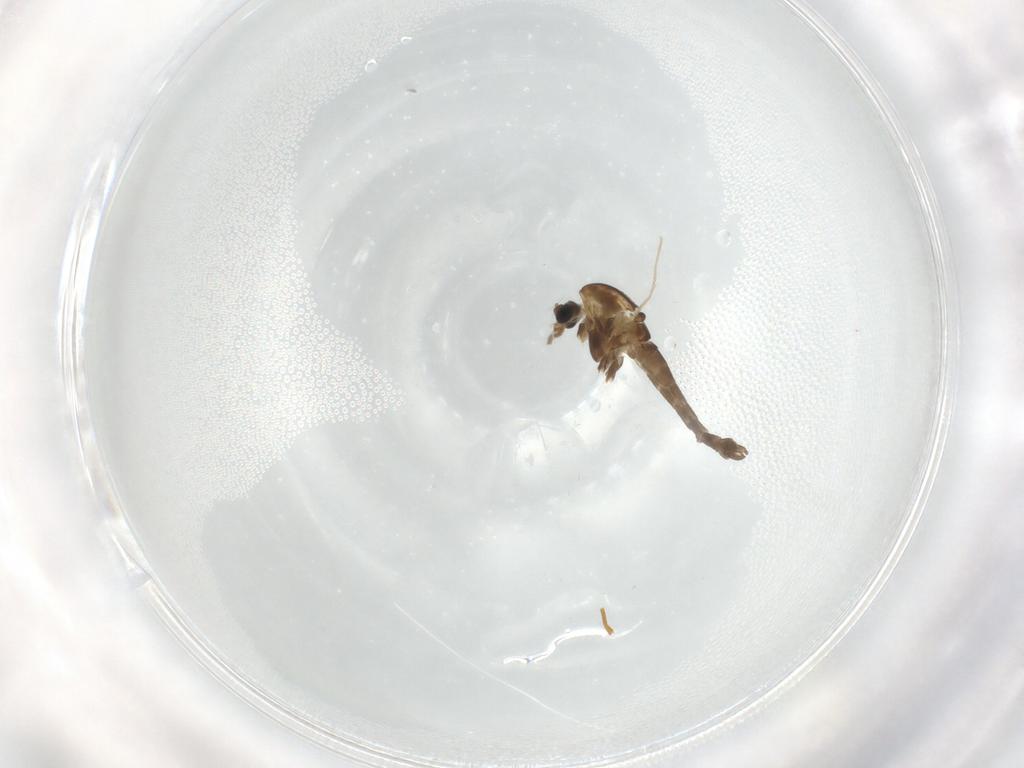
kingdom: Animalia
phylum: Arthropoda
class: Insecta
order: Diptera
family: Chironomidae
